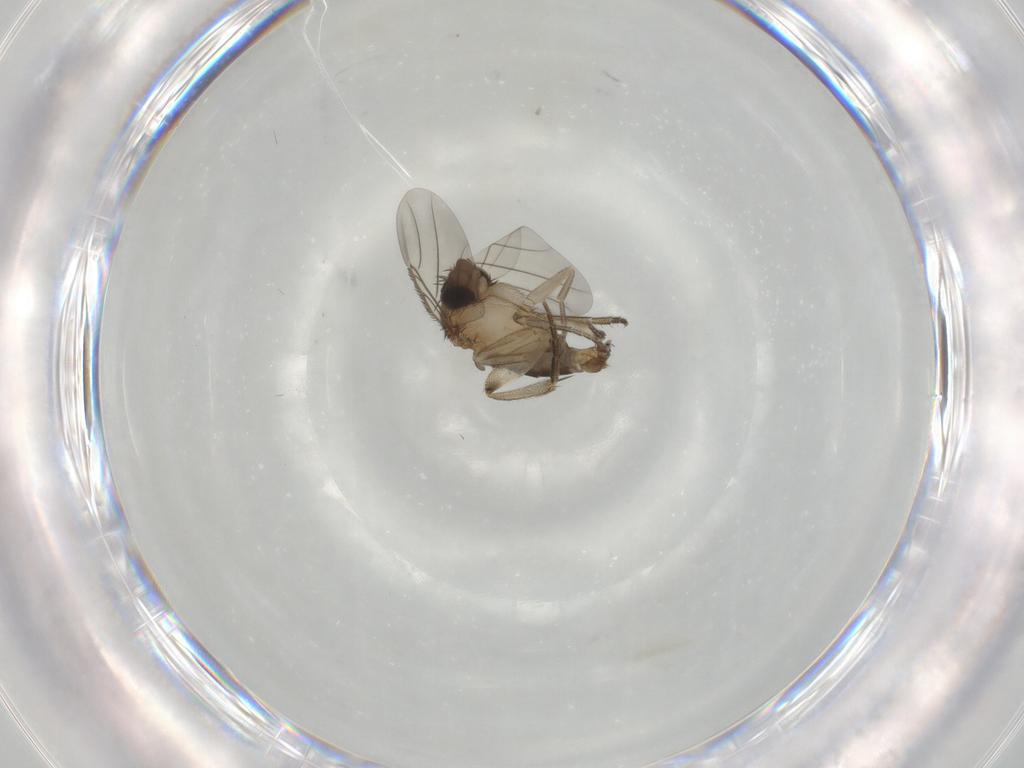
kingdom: Animalia
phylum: Arthropoda
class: Insecta
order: Diptera
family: Phoridae
